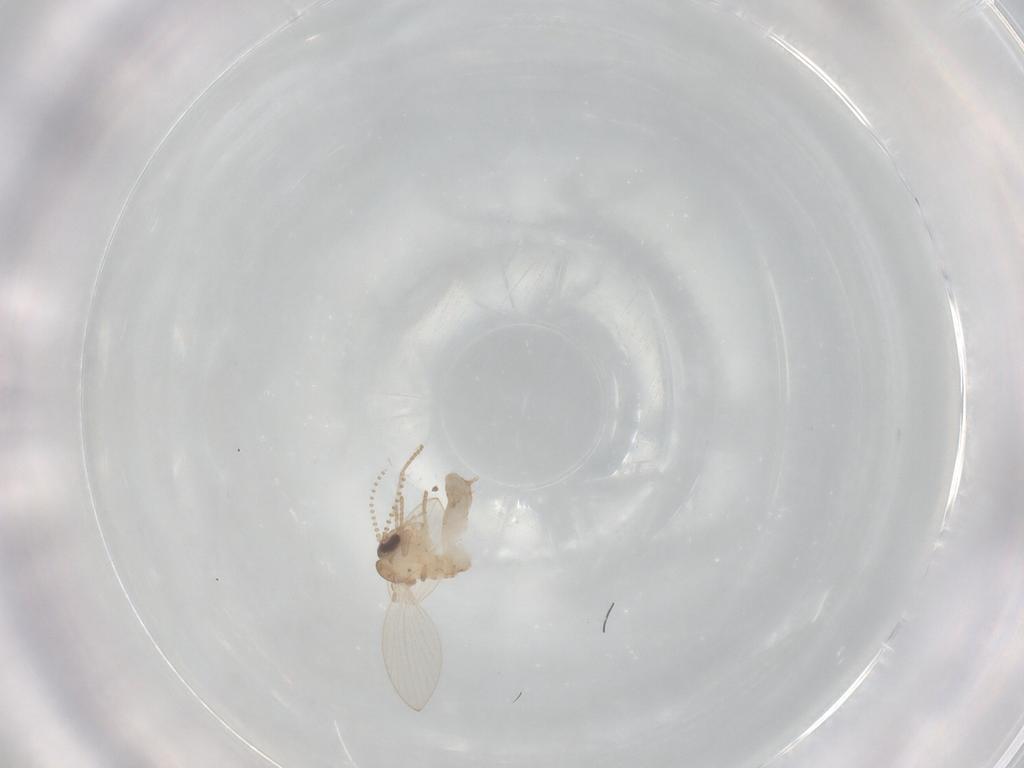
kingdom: Animalia
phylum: Arthropoda
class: Insecta
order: Diptera
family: Psychodidae
